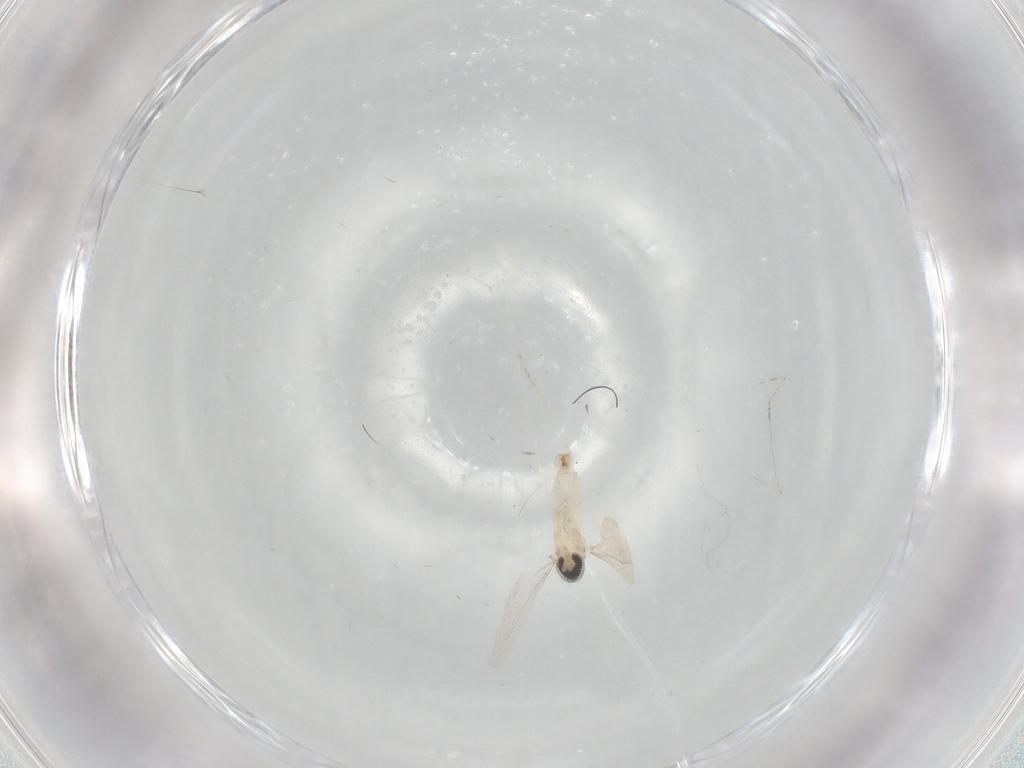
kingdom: Animalia
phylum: Arthropoda
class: Insecta
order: Diptera
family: Cecidomyiidae
